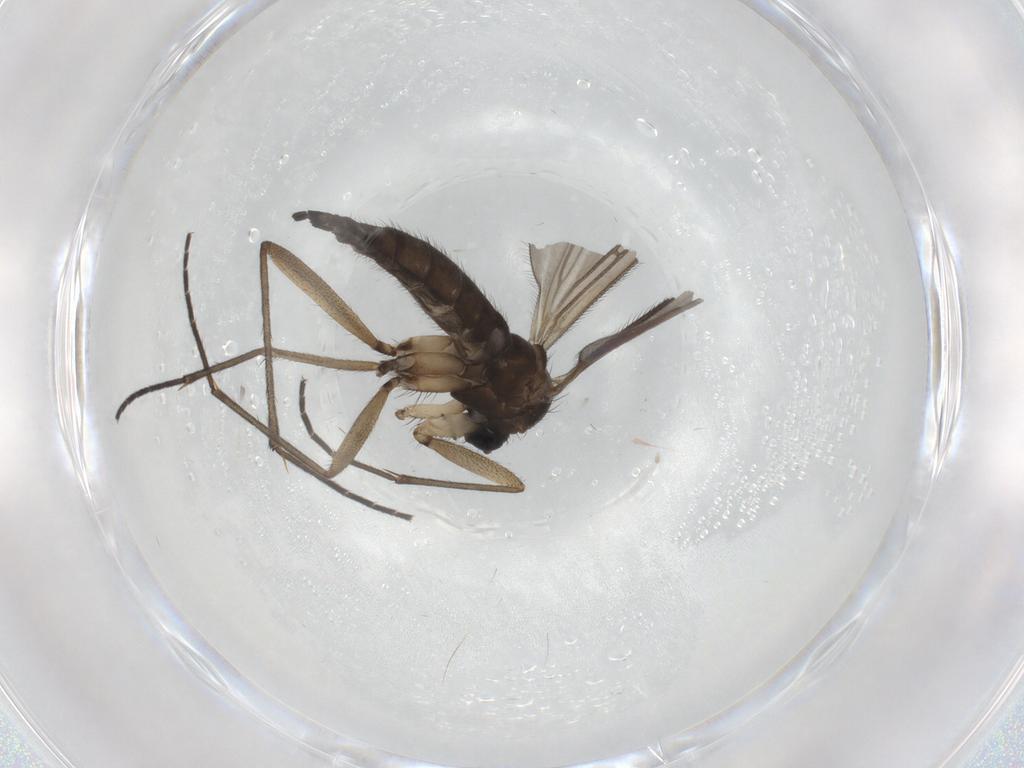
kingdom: Animalia
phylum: Arthropoda
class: Insecta
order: Diptera
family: Sciaridae
